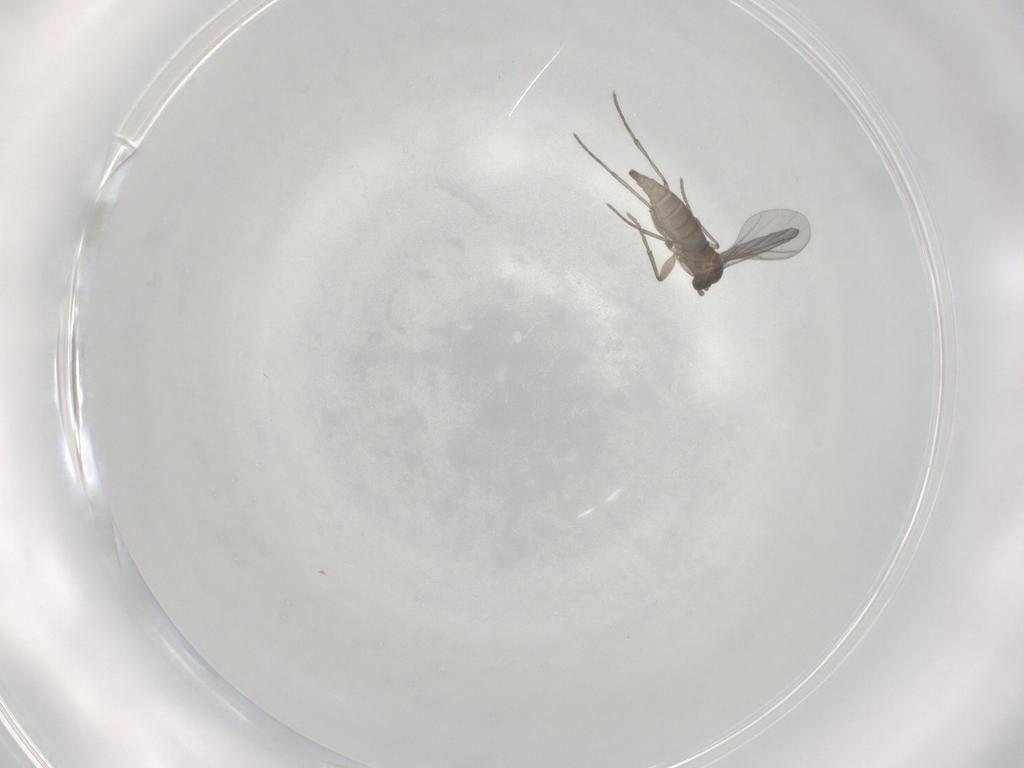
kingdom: Animalia
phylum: Arthropoda
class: Insecta
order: Diptera
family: Sciaridae
